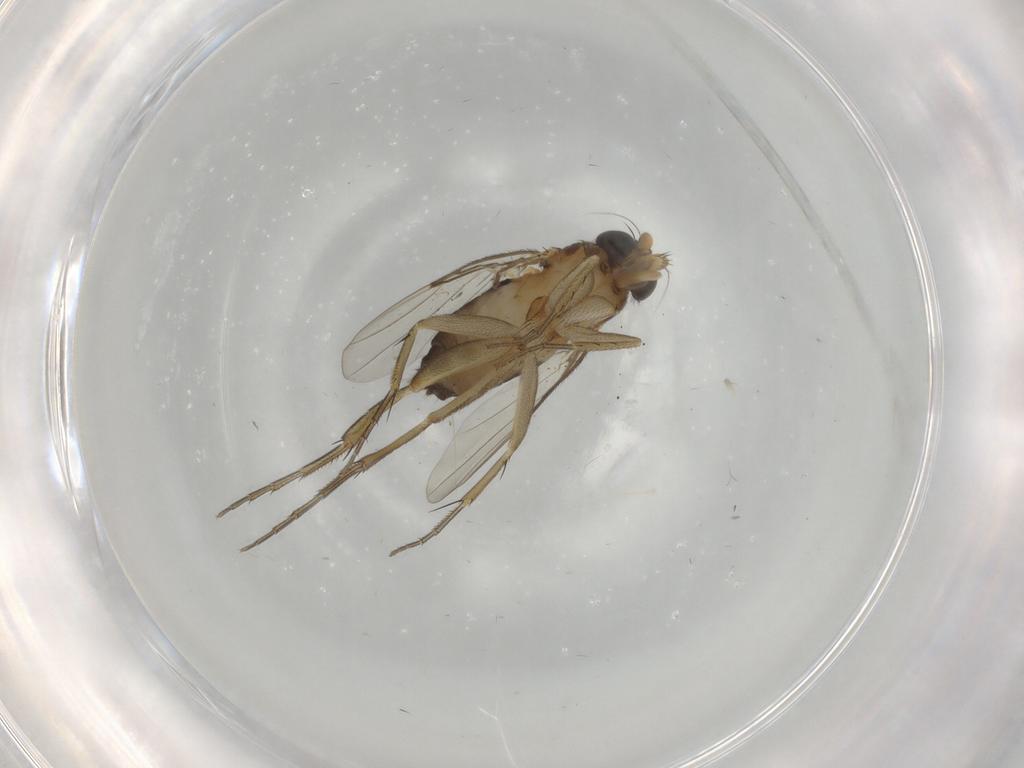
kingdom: Animalia
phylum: Arthropoda
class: Insecta
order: Diptera
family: Phoridae
